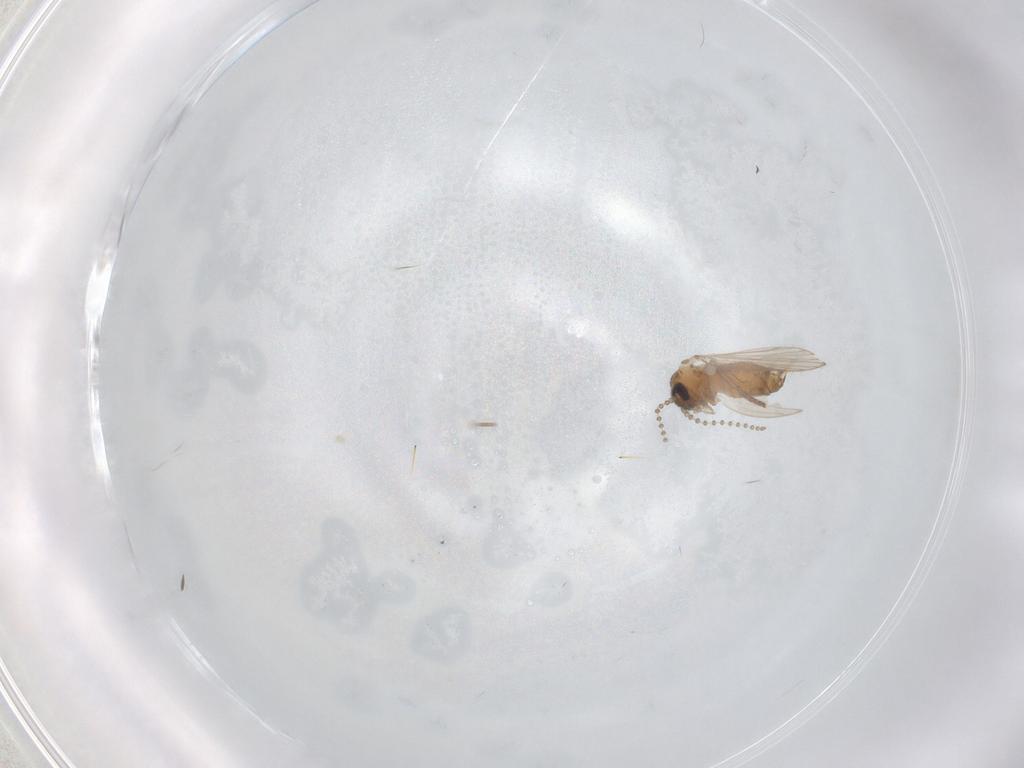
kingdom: Animalia
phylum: Arthropoda
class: Insecta
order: Diptera
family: Psychodidae
